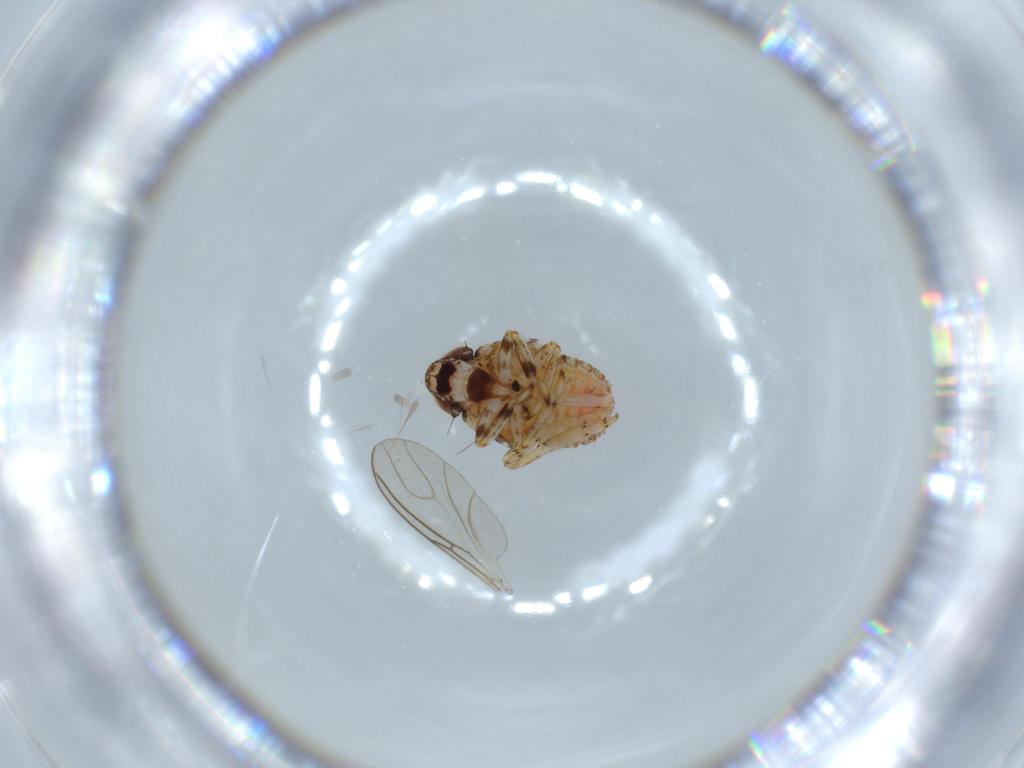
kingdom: Animalia
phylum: Arthropoda
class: Insecta
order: Hemiptera
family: Issidae
